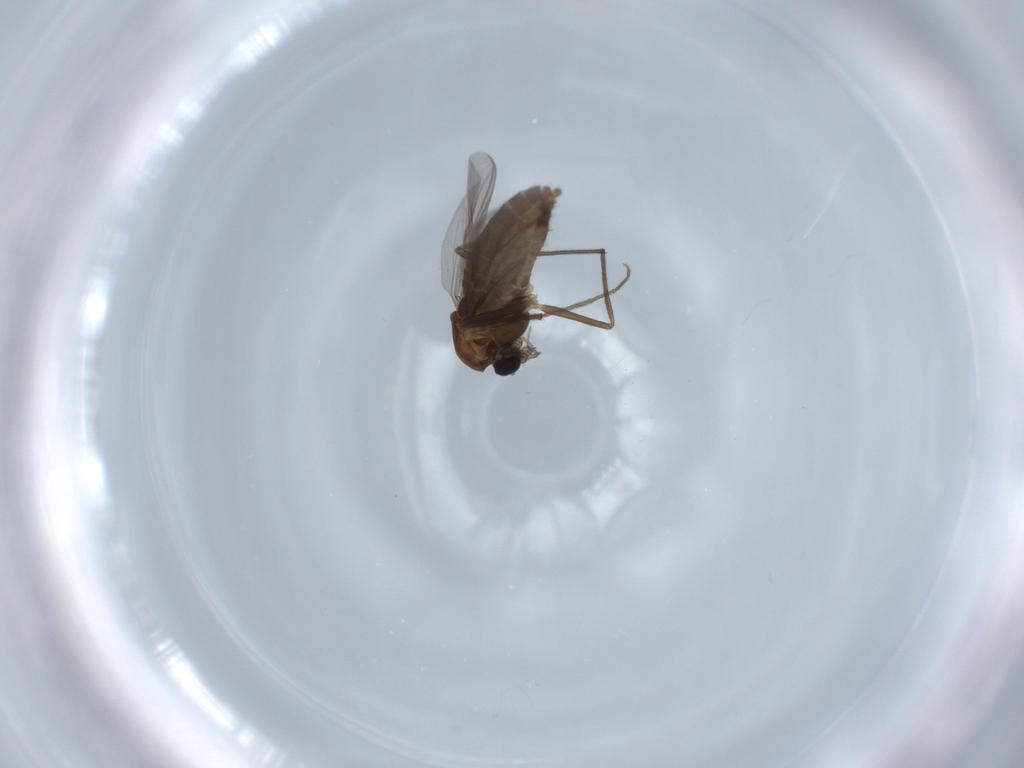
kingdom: Animalia
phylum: Arthropoda
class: Insecta
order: Diptera
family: Chironomidae
